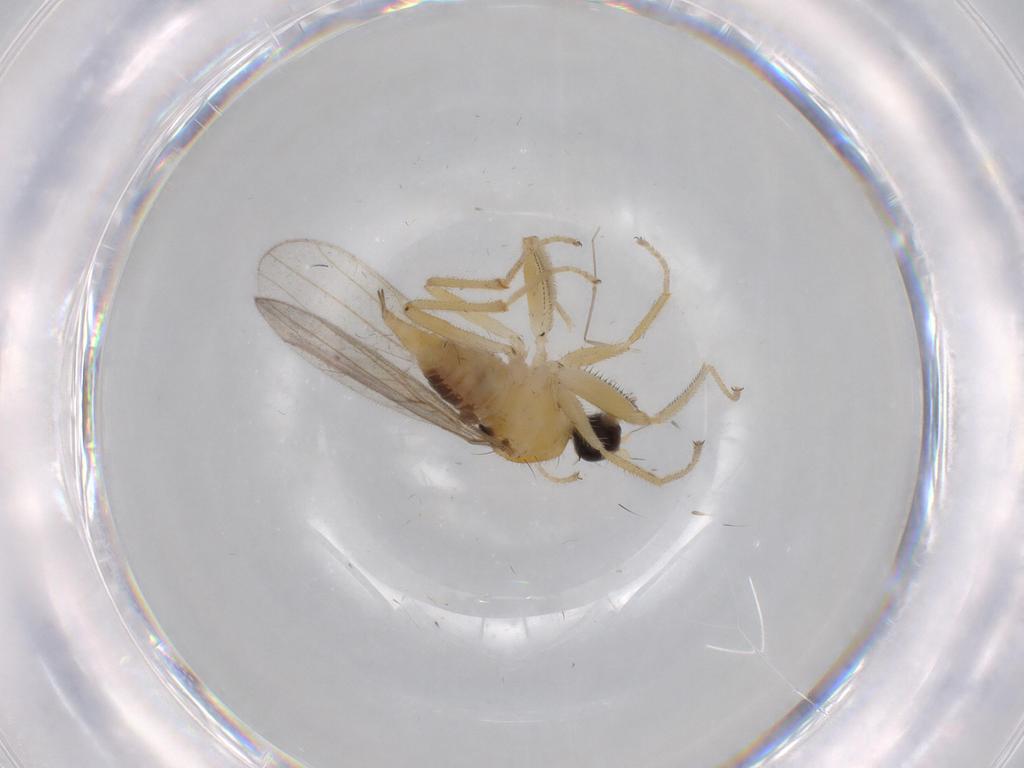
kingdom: Animalia
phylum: Arthropoda
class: Insecta
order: Diptera
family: Hybotidae
